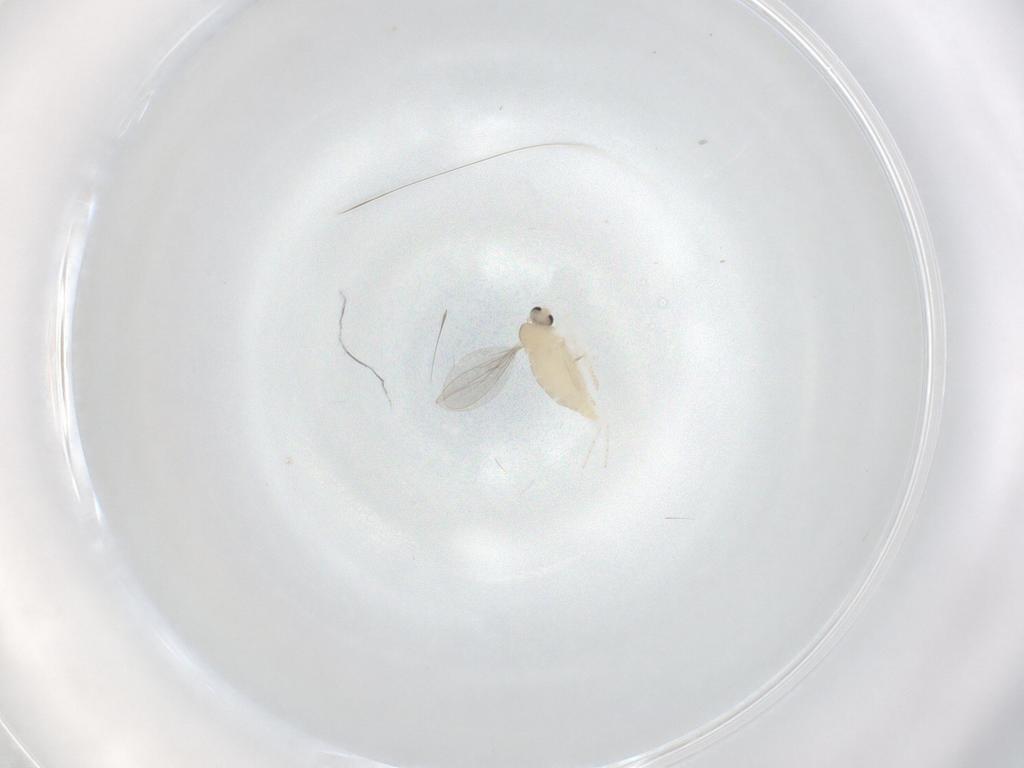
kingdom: Animalia
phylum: Arthropoda
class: Insecta
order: Diptera
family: Cecidomyiidae
